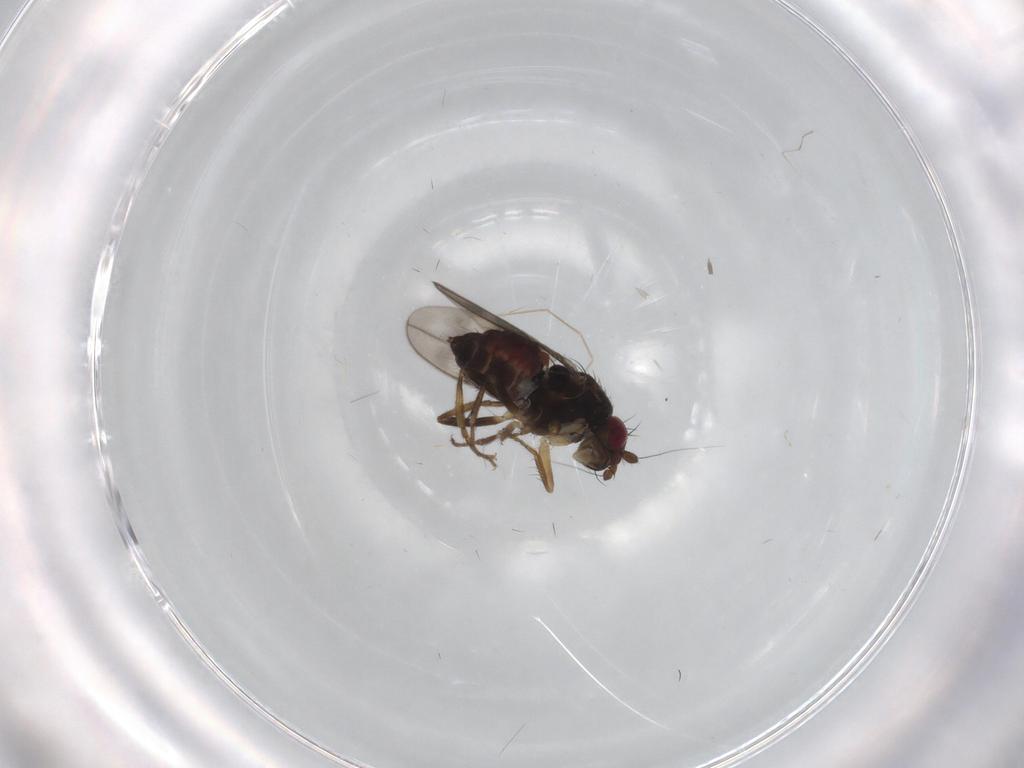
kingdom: Animalia
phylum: Arthropoda
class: Insecta
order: Diptera
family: Sphaeroceridae
